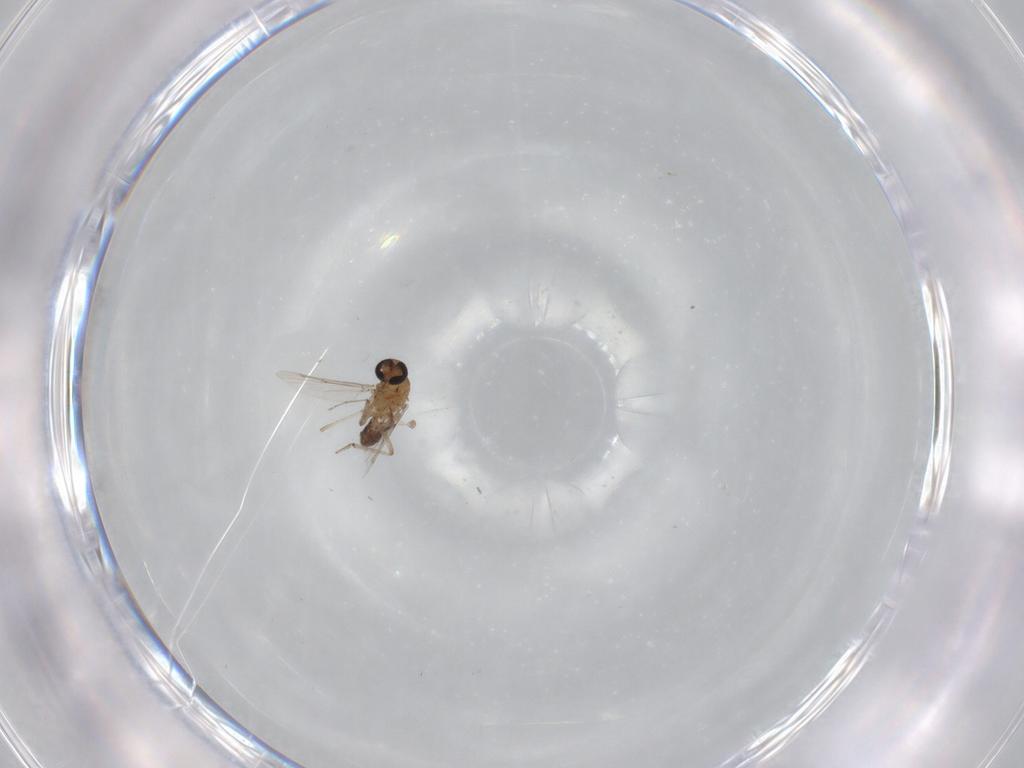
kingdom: Animalia
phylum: Arthropoda
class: Insecta
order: Diptera
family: Ceratopogonidae
